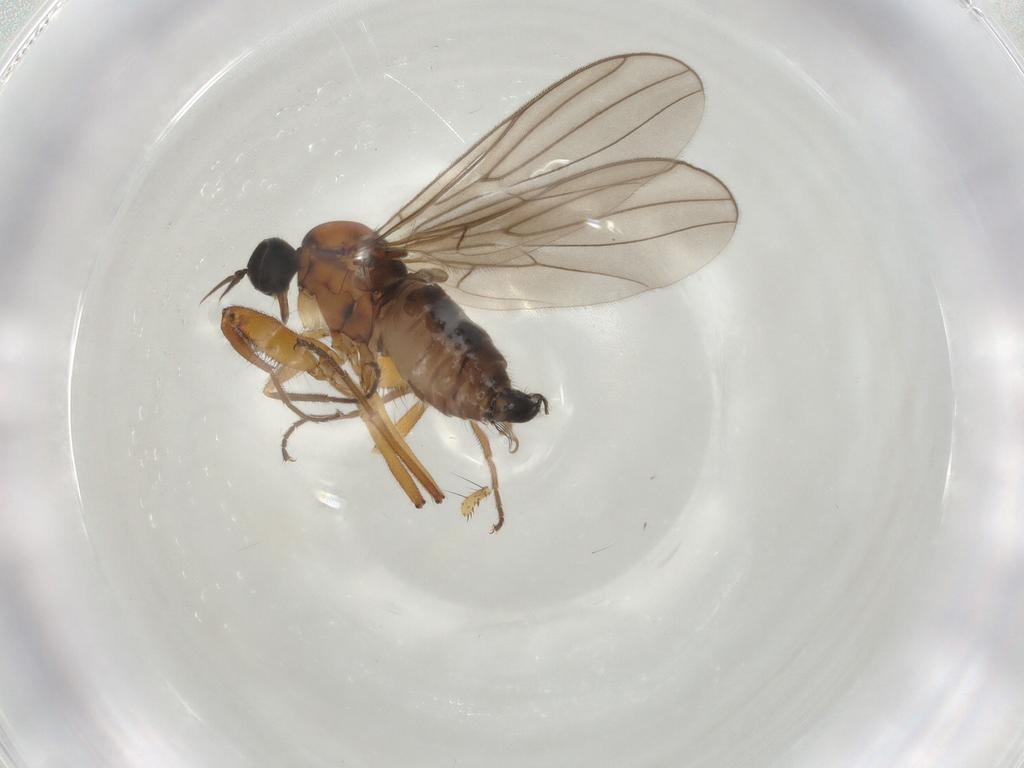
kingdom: Animalia
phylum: Arthropoda
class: Insecta
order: Diptera
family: Hybotidae
